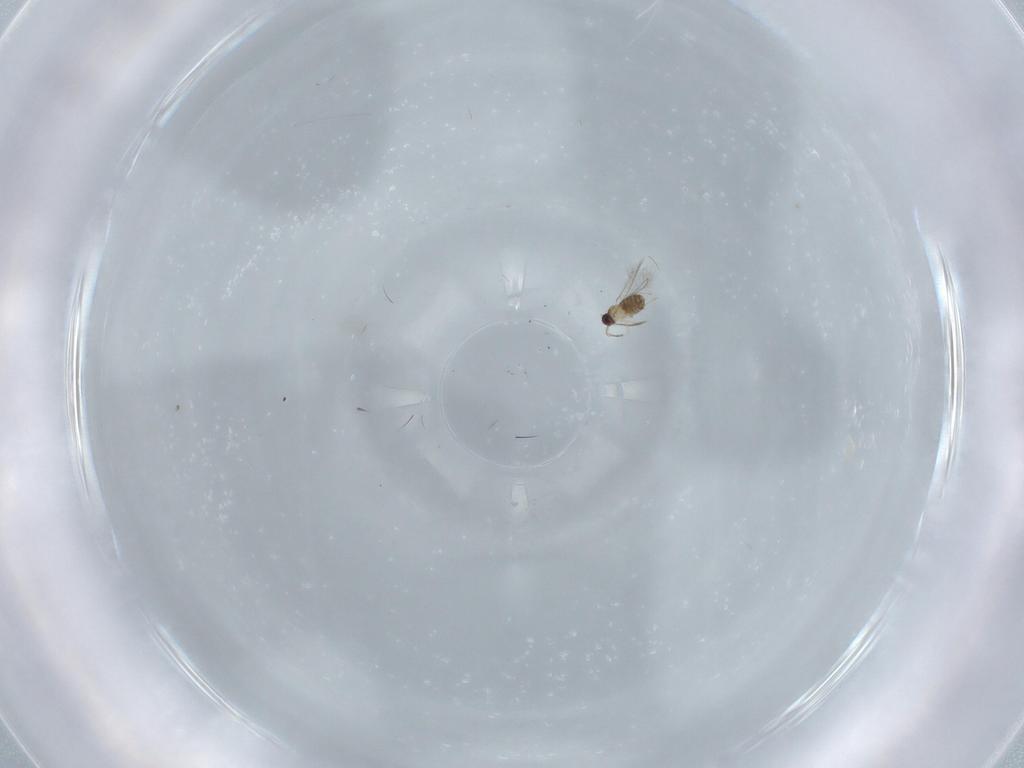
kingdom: Animalia
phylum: Arthropoda
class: Insecta
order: Hymenoptera
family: Mymaridae
